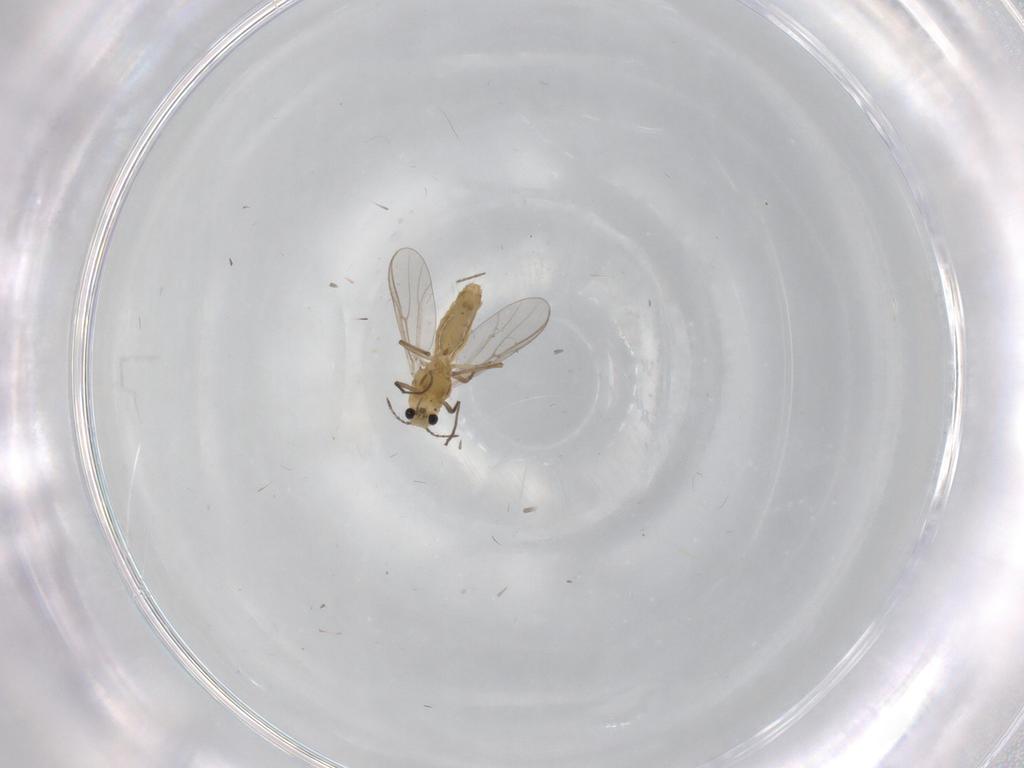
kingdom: Animalia
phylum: Arthropoda
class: Insecta
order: Diptera
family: Chironomidae
